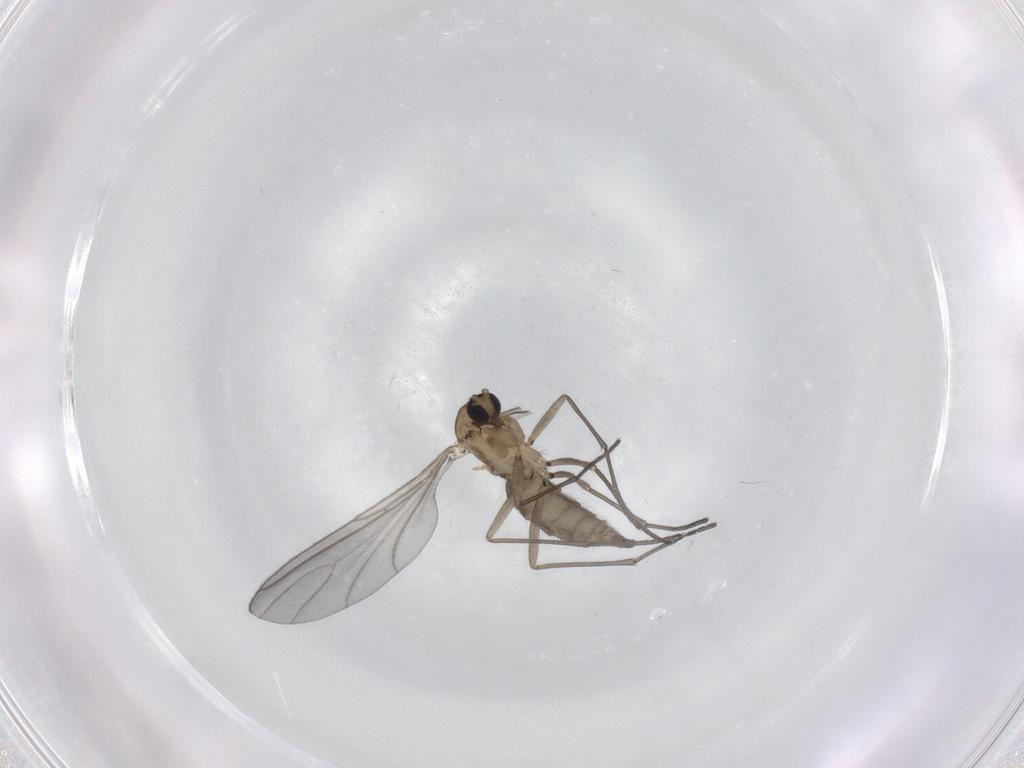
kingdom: Animalia
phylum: Arthropoda
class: Insecta
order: Diptera
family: Sciaridae
